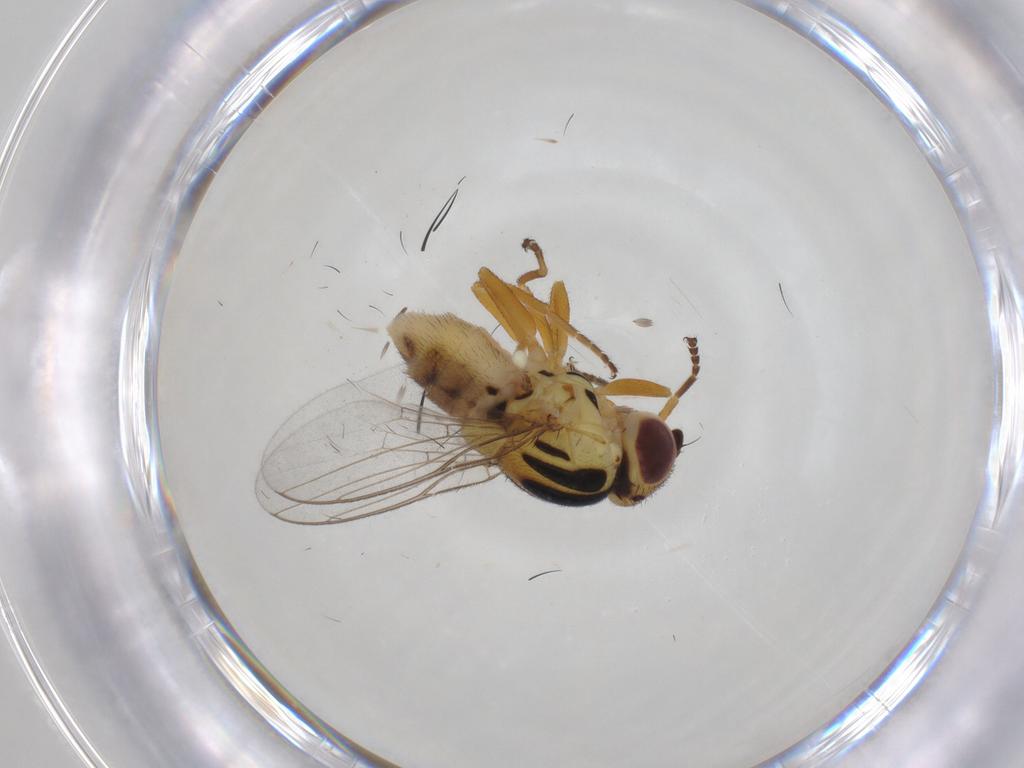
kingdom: Animalia
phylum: Arthropoda
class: Insecta
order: Diptera
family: Chloropidae
